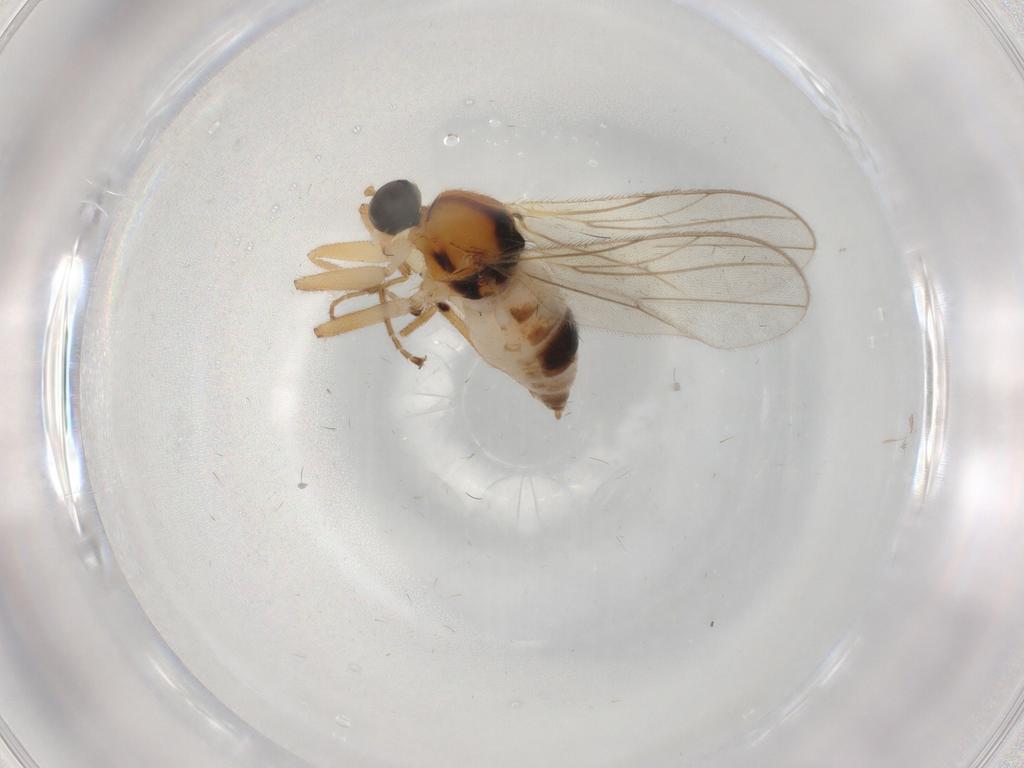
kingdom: Animalia
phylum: Arthropoda
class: Insecta
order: Diptera
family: Hybotidae
